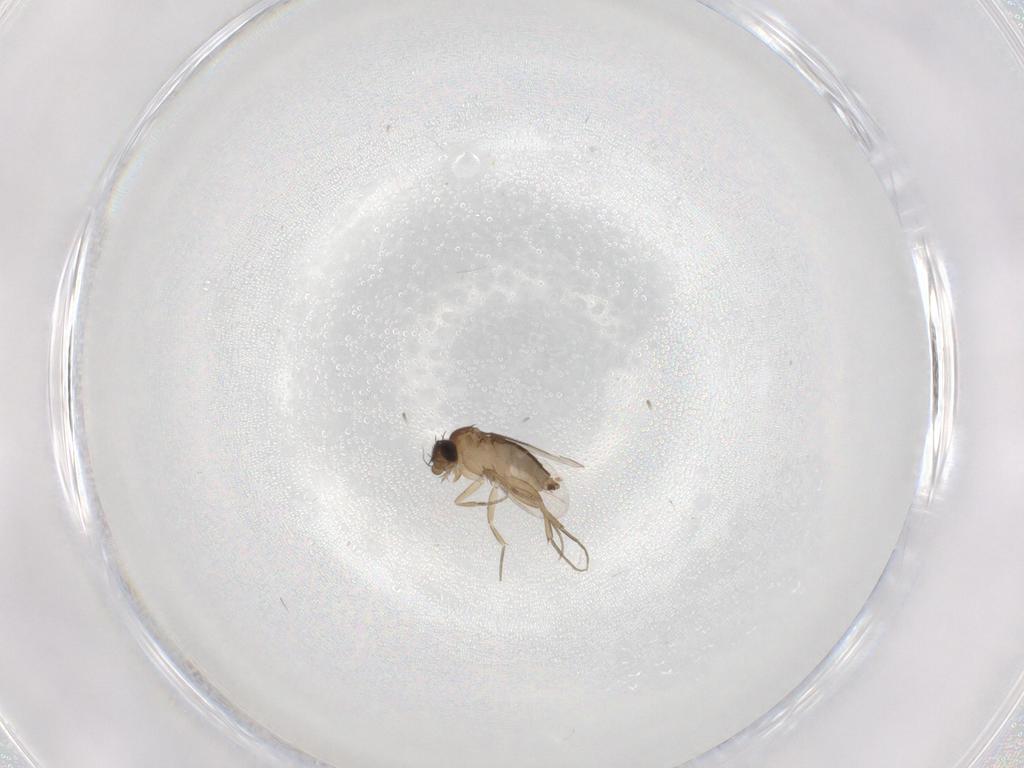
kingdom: Animalia
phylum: Arthropoda
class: Insecta
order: Diptera
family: Phoridae
